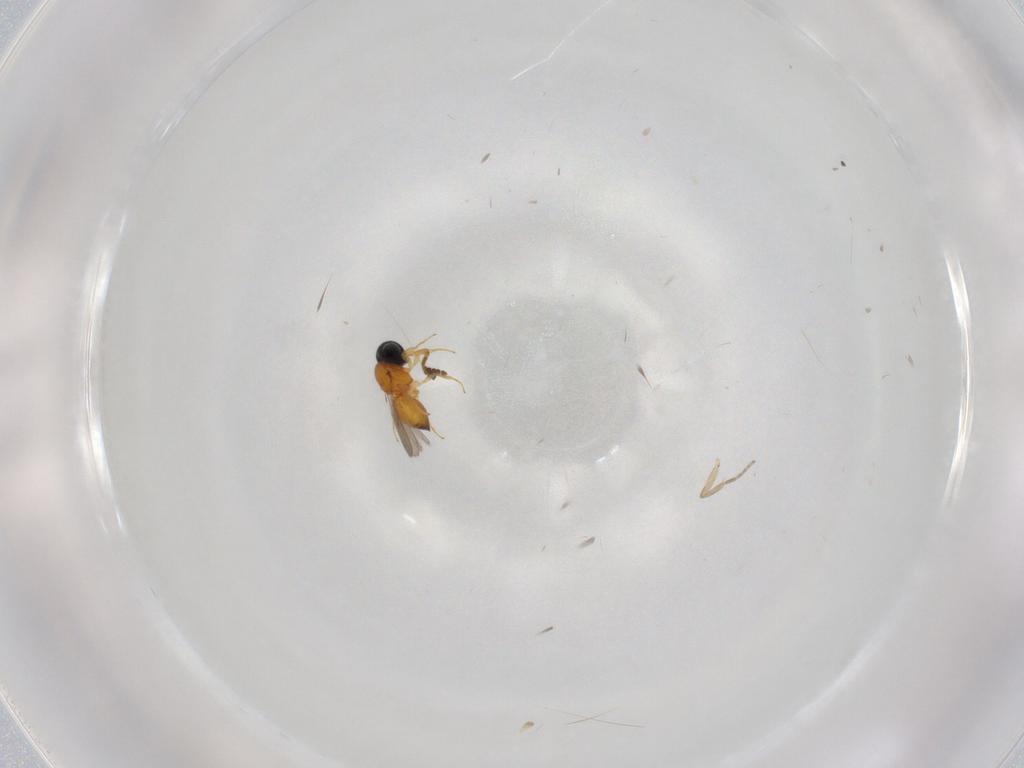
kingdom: Animalia
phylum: Arthropoda
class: Insecta
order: Hymenoptera
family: Scelionidae
